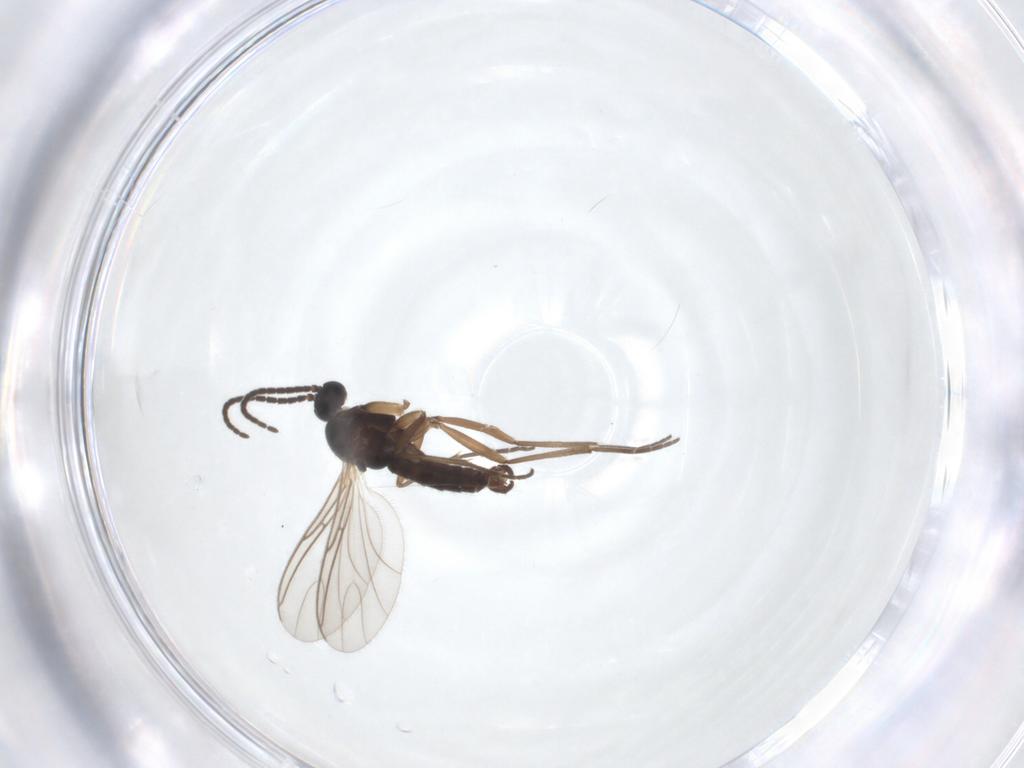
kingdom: Animalia
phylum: Arthropoda
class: Insecta
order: Diptera
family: Sciaridae
